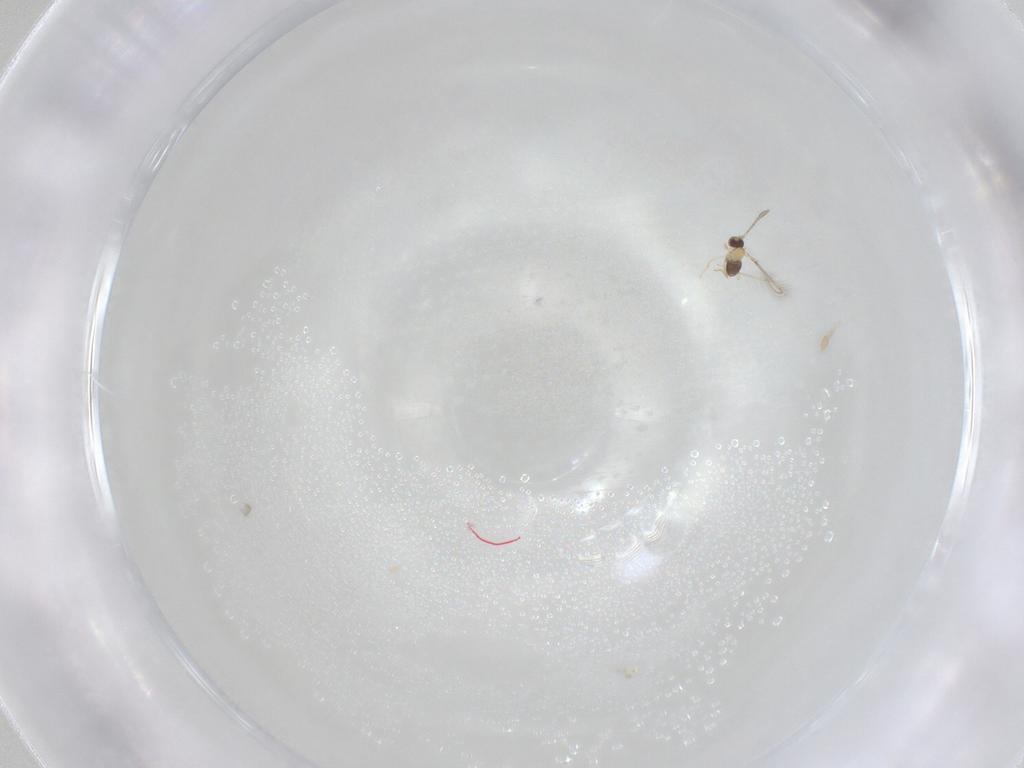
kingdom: Animalia
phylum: Arthropoda
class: Insecta
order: Hymenoptera
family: Mymaridae
